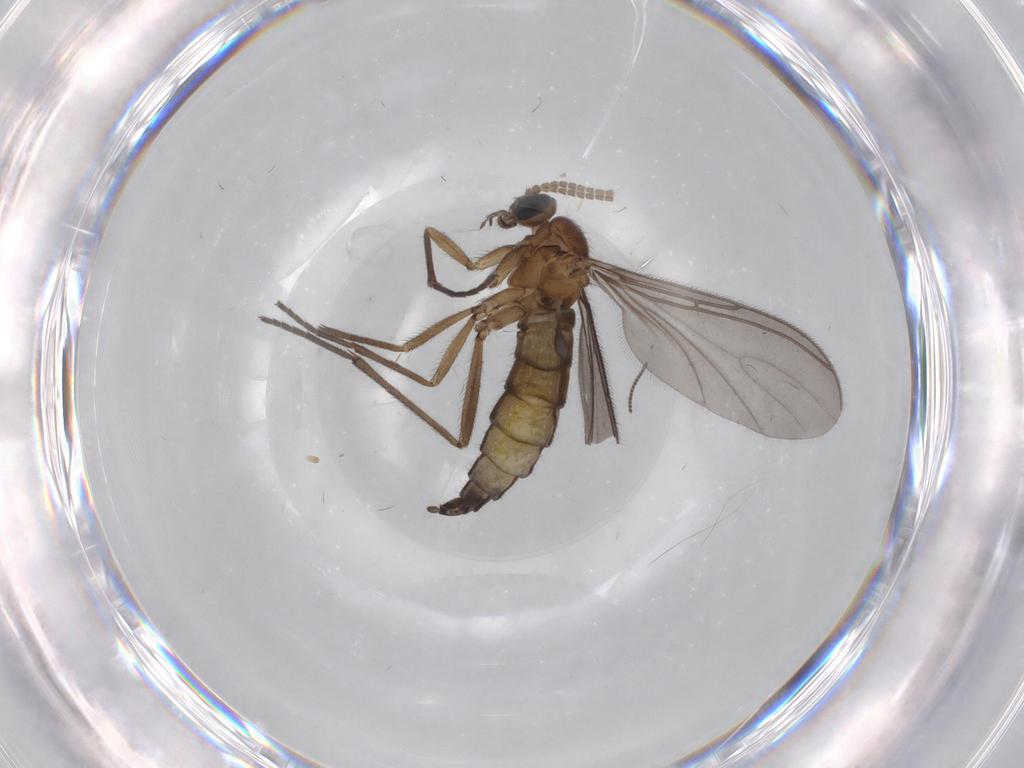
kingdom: Animalia
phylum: Arthropoda
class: Insecta
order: Diptera
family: Sciaridae
